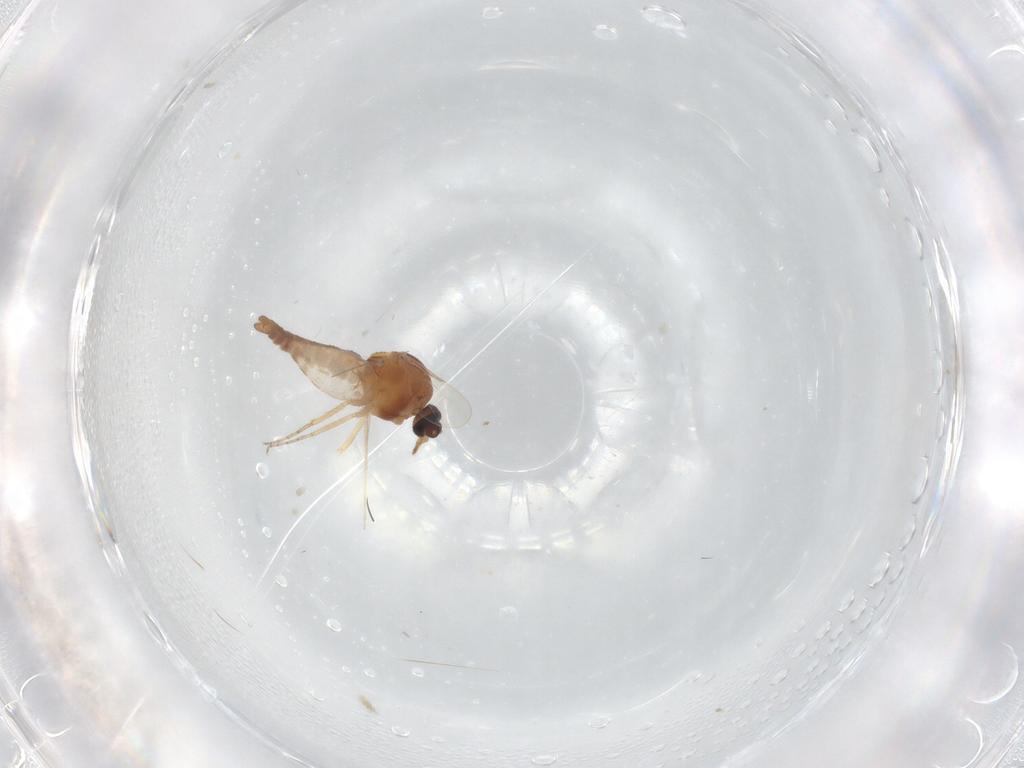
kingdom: Animalia
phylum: Arthropoda
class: Insecta
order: Diptera
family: Ceratopogonidae
